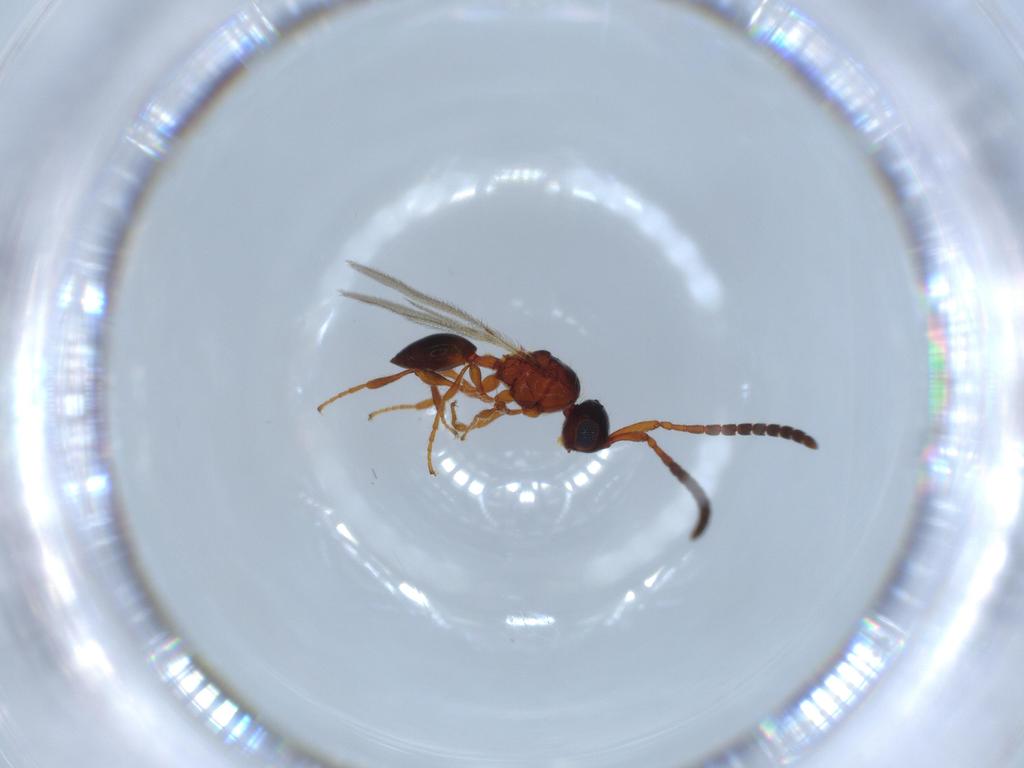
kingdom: Animalia
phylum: Arthropoda
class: Insecta
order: Hymenoptera
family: Diapriidae
